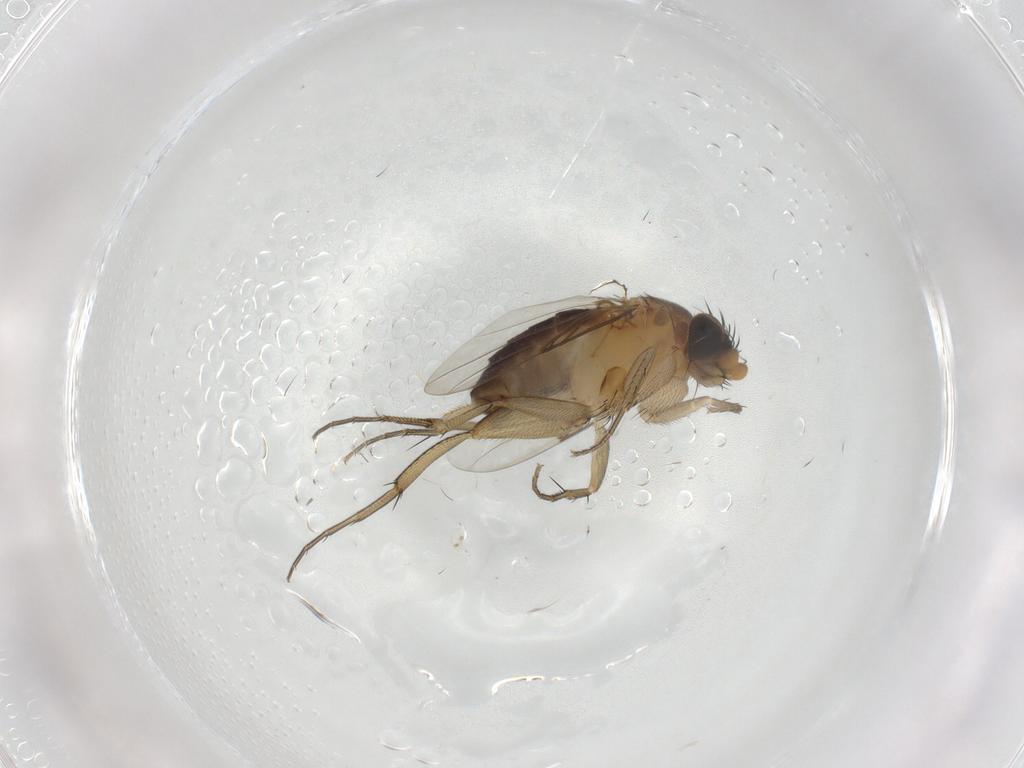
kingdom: Animalia
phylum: Arthropoda
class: Insecta
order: Diptera
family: Phoridae
